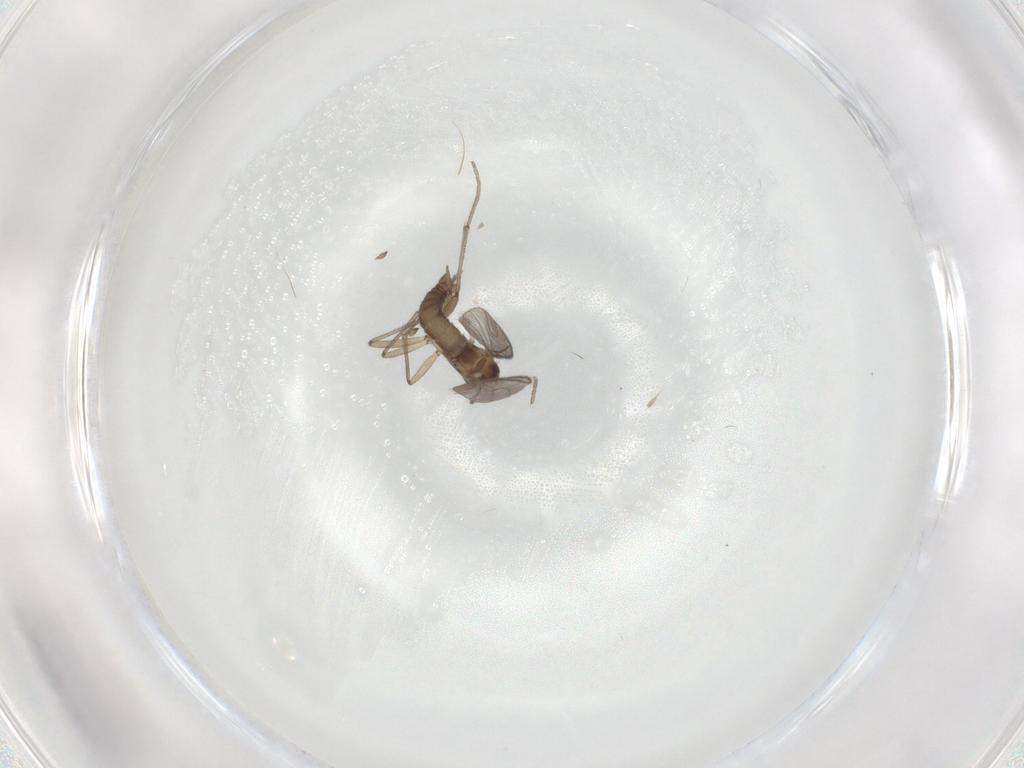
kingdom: Animalia
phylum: Arthropoda
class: Insecta
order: Diptera
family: Sciaridae
